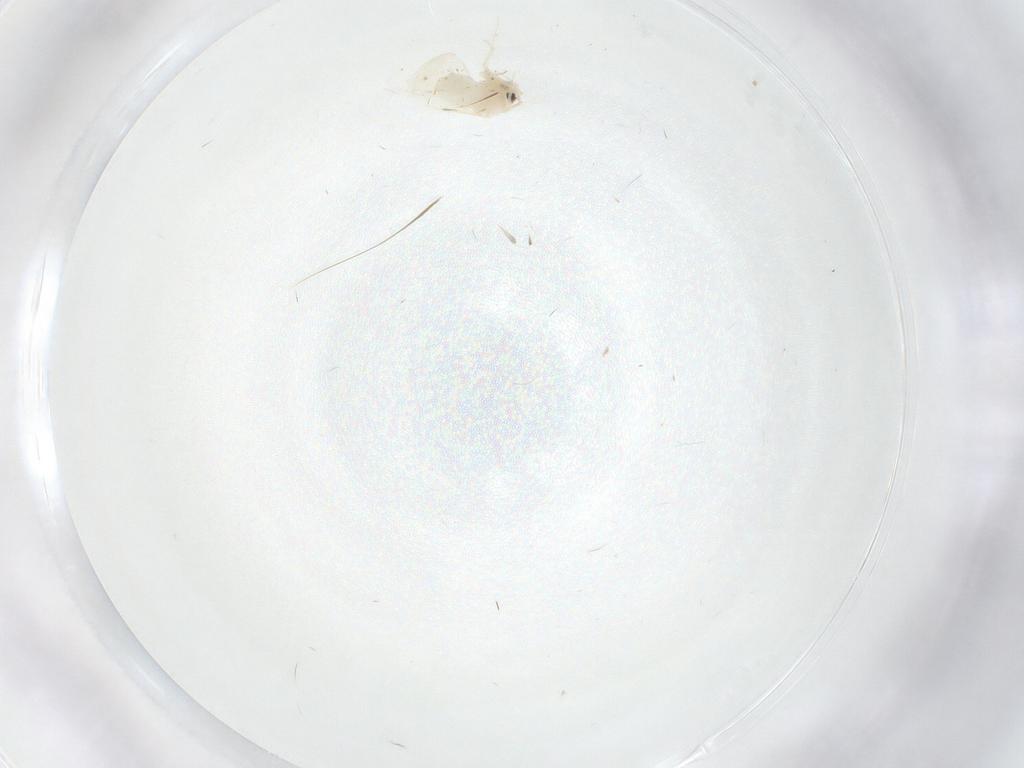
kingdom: Animalia
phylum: Arthropoda
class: Insecta
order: Hemiptera
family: Aleyrodidae
